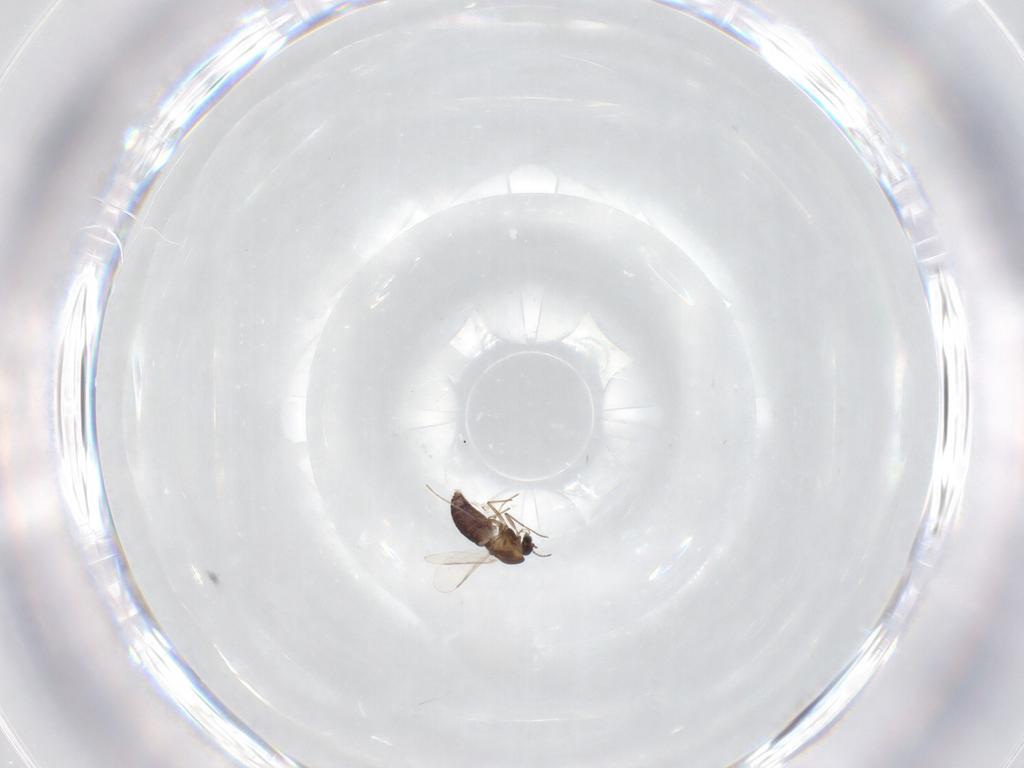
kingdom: Animalia
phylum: Arthropoda
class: Insecta
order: Diptera
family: Chironomidae
